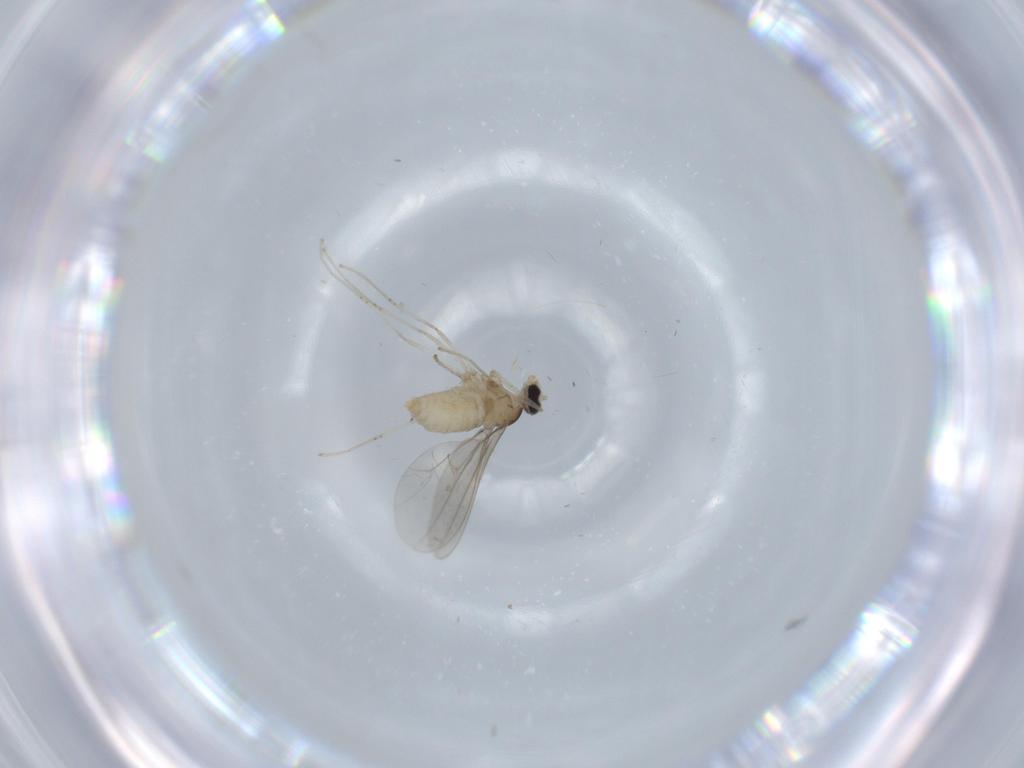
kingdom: Animalia
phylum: Arthropoda
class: Insecta
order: Diptera
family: Cecidomyiidae
